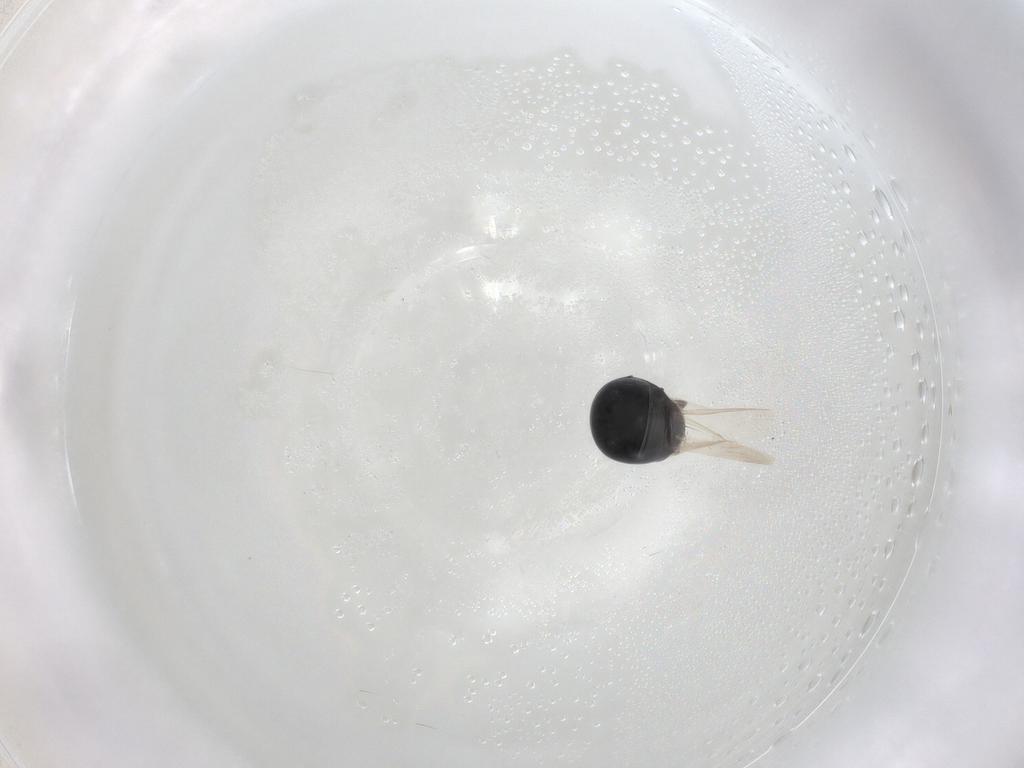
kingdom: Animalia
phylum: Arthropoda
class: Insecta
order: Coleoptera
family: Cybocephalidae
